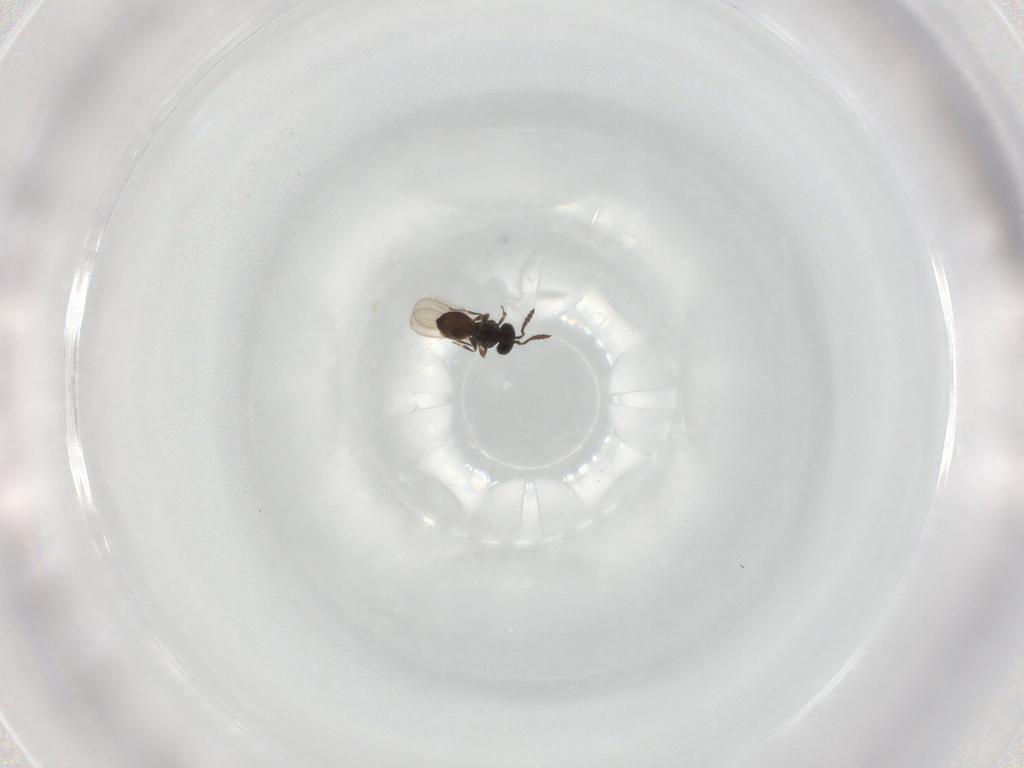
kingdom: Animalia
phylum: Arthropoda
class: Insecta
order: Hymenoptera
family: Scelionidae
